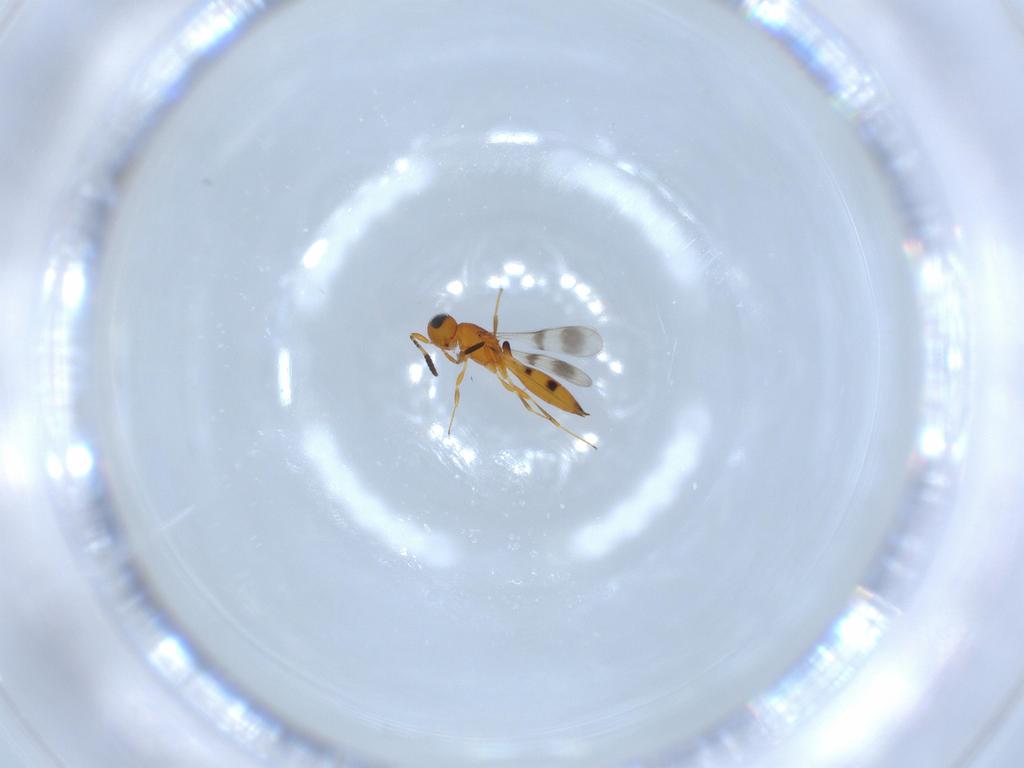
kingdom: Animalia
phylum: Arthropoda
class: Insecta
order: Hymenoptera
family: Scelionidae
